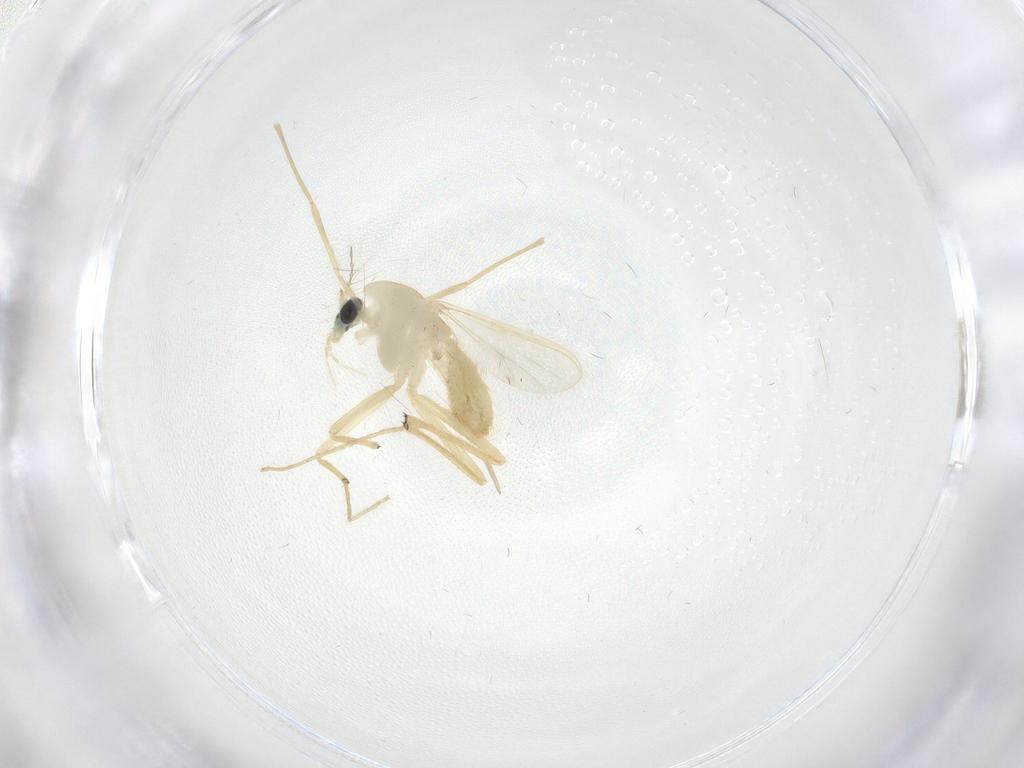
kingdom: Animalia
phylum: Arthropoda
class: Insecta
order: Diptera
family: Chironomidae
